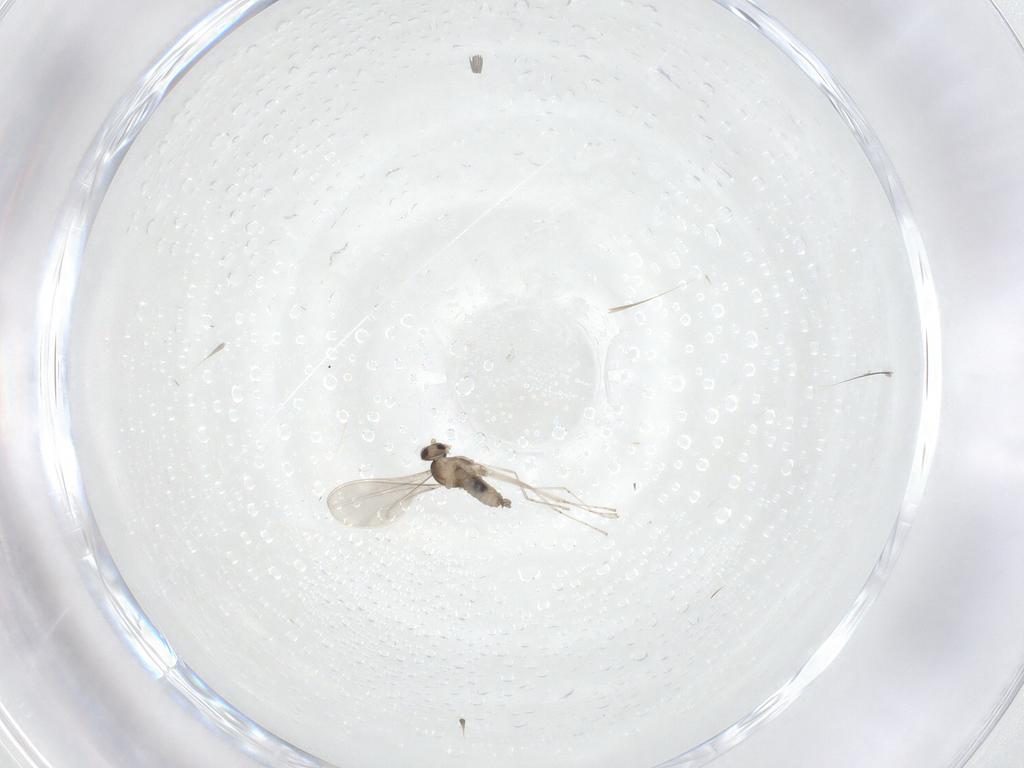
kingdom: Animalia
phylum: Arthropoda
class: Insecta
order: Diptera
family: Cecidomyiidae
